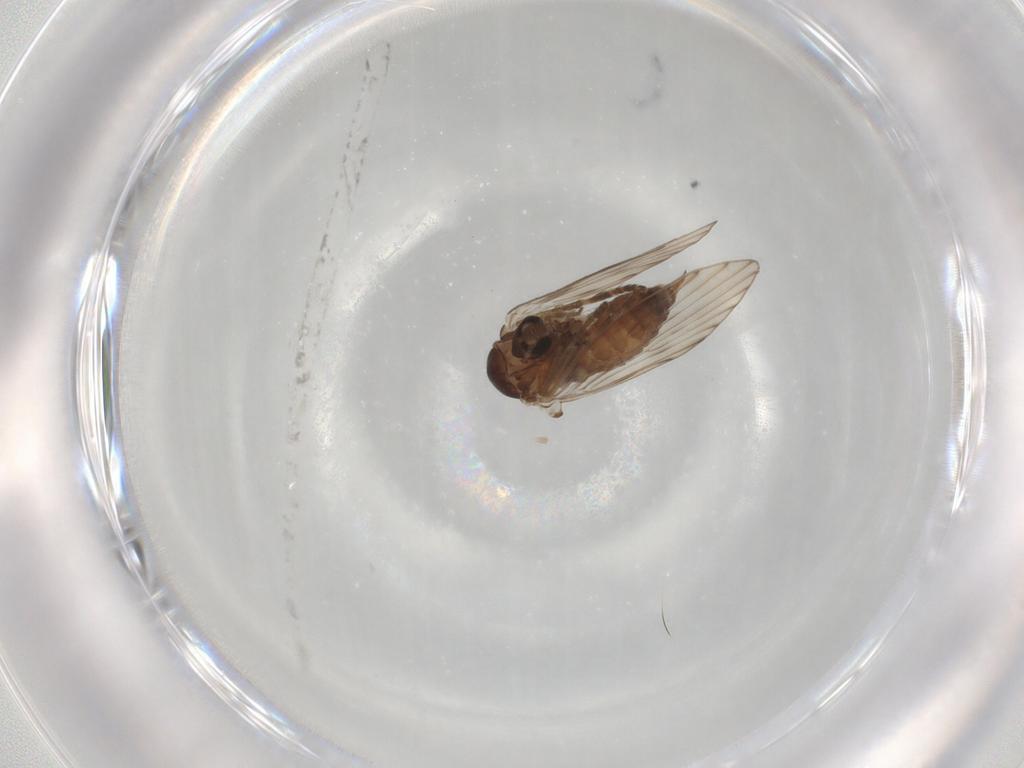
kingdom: Animalia
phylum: Arthropoda
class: Insecta
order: Diptera
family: Psychodidae
